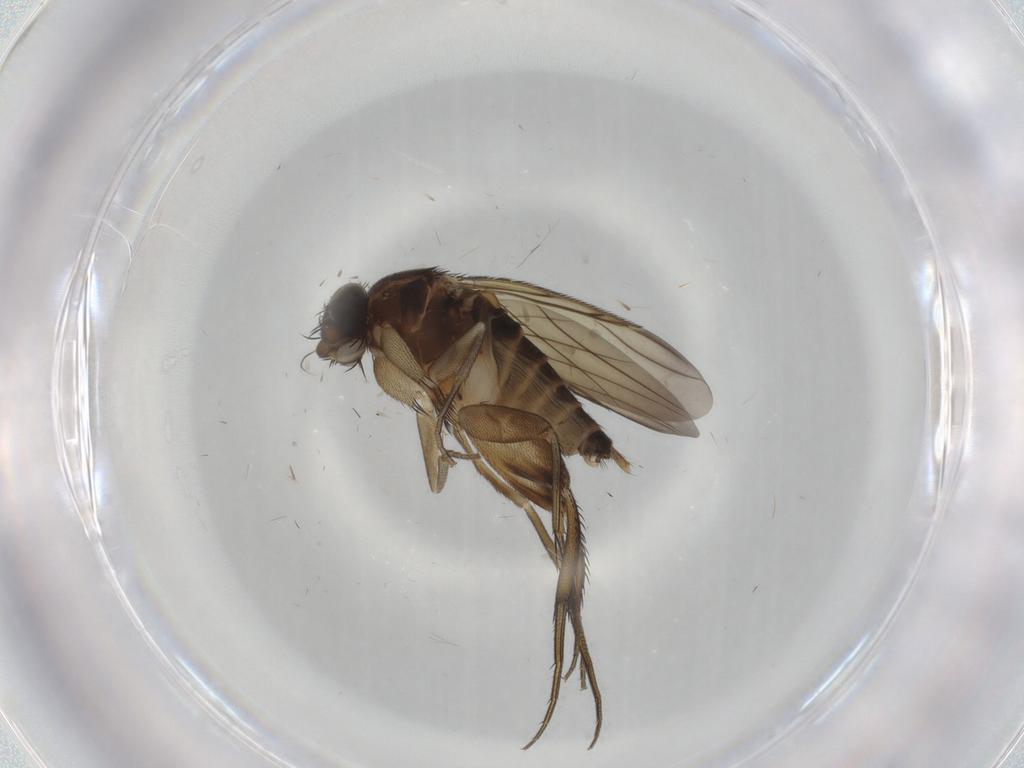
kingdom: Animalia
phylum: Arthropoda
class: Insecta
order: Diptera
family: Phoridae
